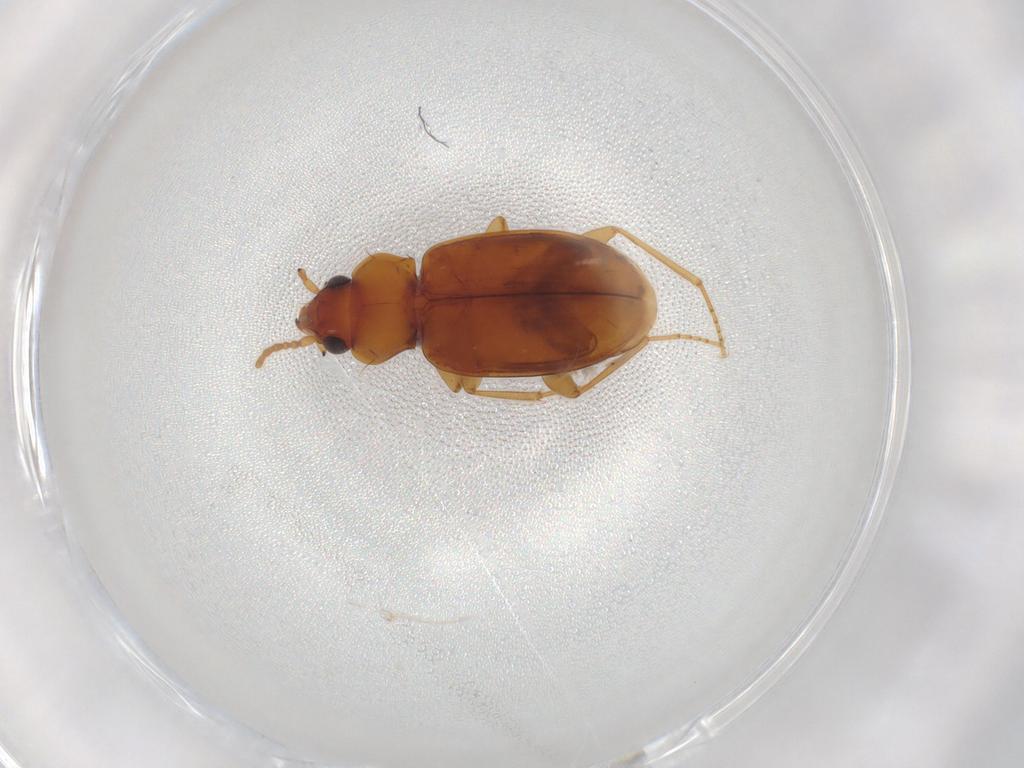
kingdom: Animalia
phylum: Arthropoda
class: Insecta
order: Coleoptera
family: Carabidae
